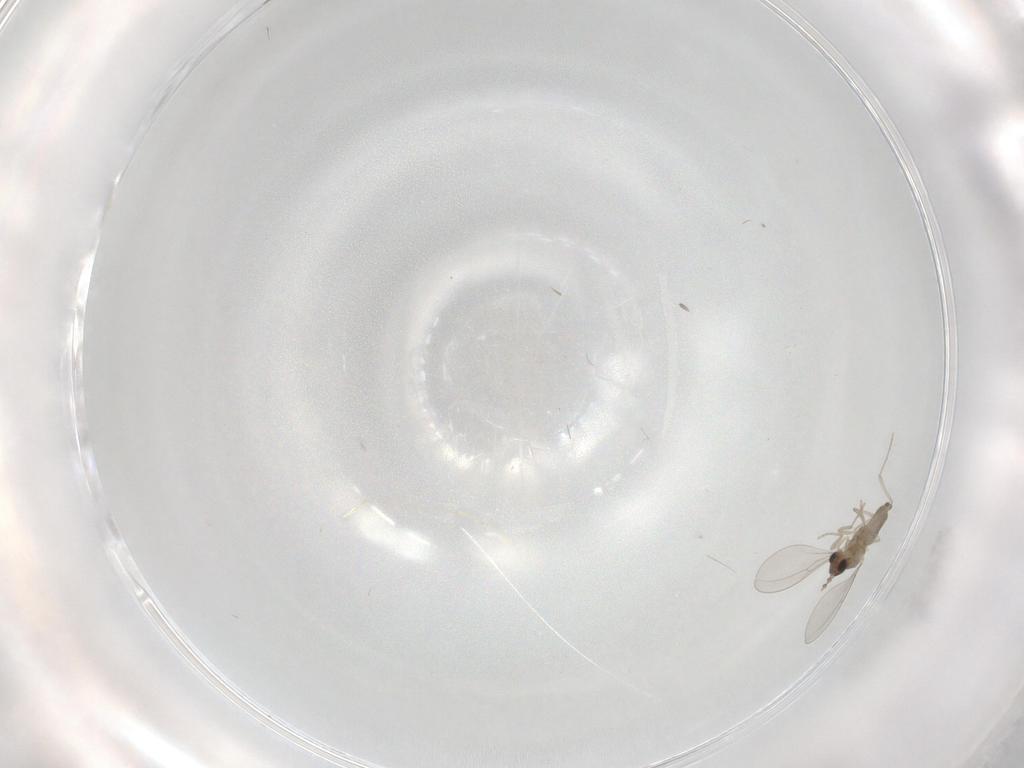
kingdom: Animalia
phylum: Arthropoda
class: Insecta
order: Diptera
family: Cecidomyiidae
